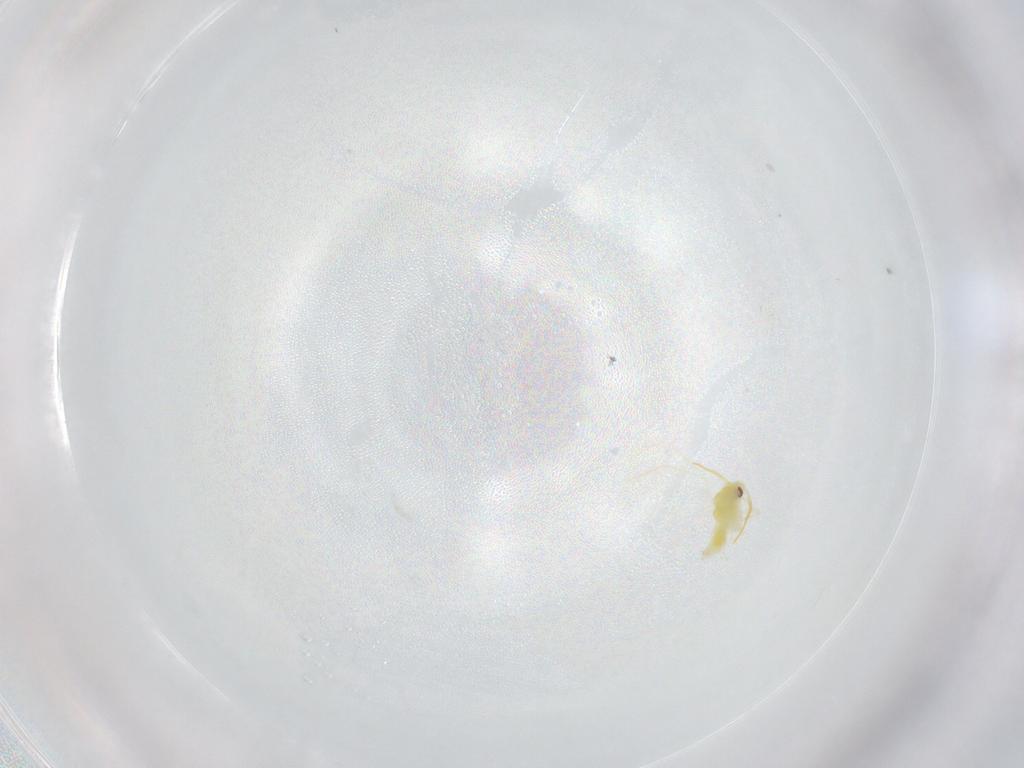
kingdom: Animalia
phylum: Arthropoda
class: Insecta
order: Hemiptera
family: Aleyrodidae
